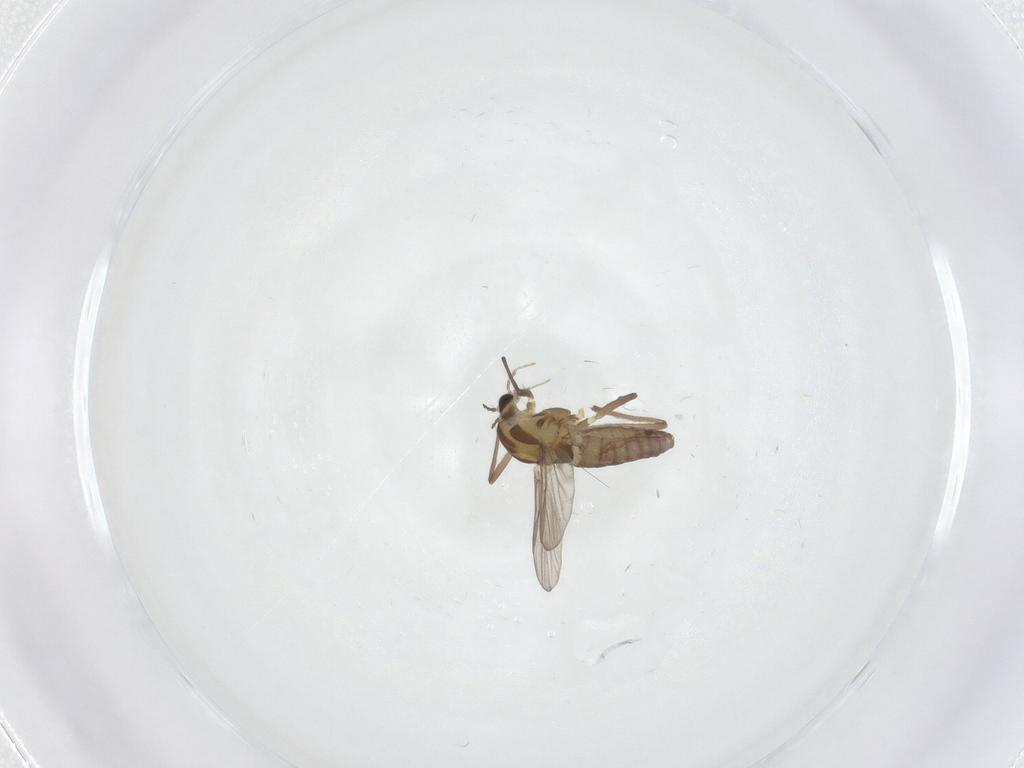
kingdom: Animalia
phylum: Arthropoda
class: Insecta
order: Diptera
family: Chironomidae
